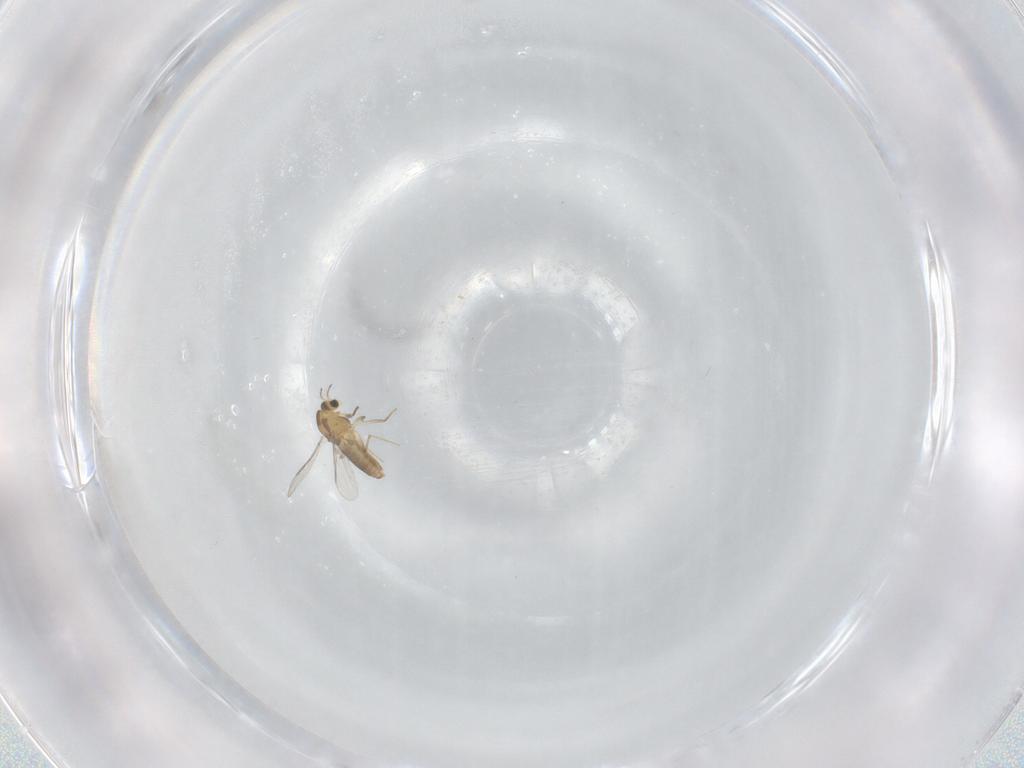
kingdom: Animalia
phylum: Arthropoda
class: Insecta
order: Diptera
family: Chironomidae
